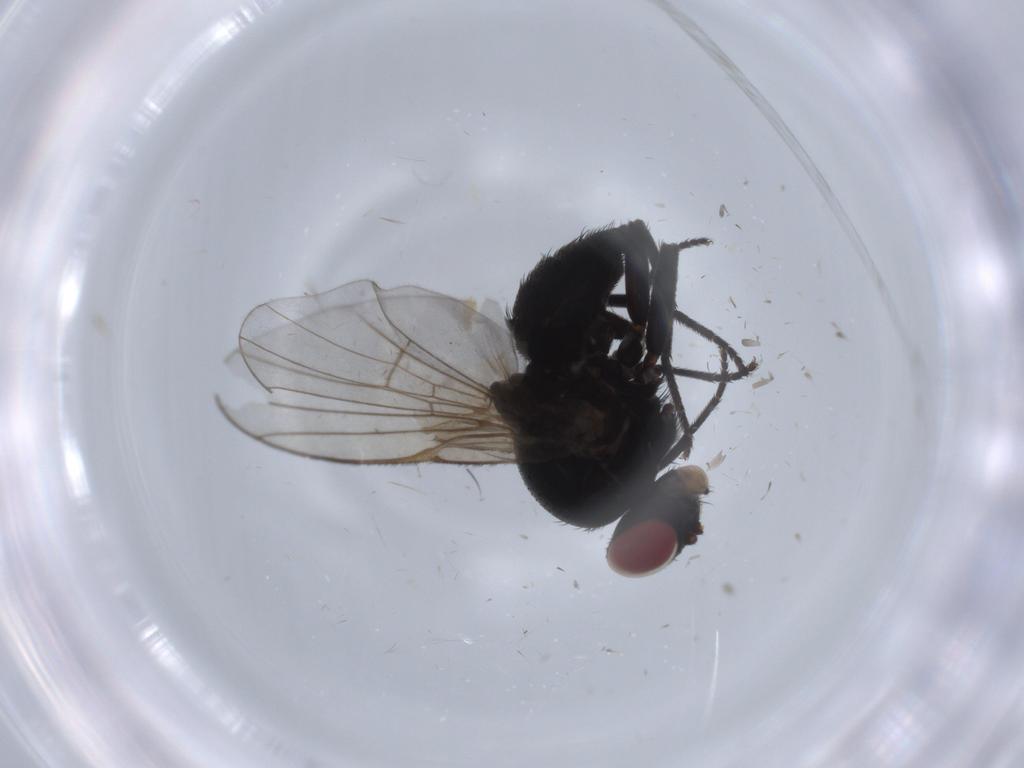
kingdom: Animalia
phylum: Arthropoda
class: Insecta
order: Diptera
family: Agromyzidae
